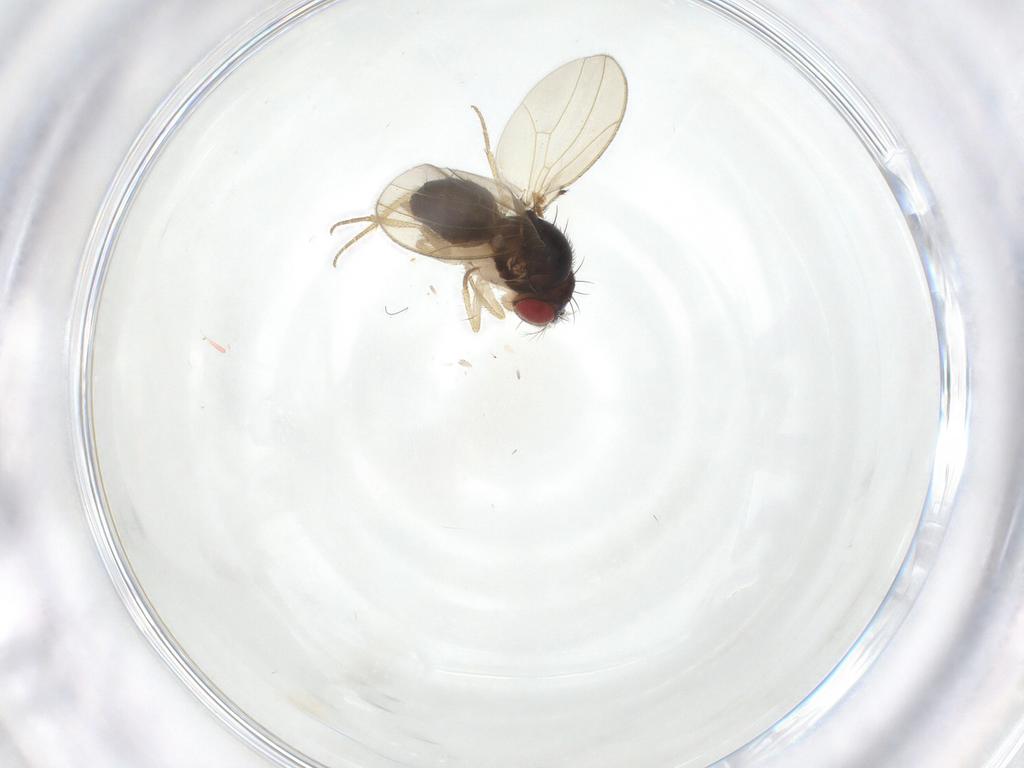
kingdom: Animalia
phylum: Arthropoda
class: Insecta
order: Diptera
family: Drosophilidae
